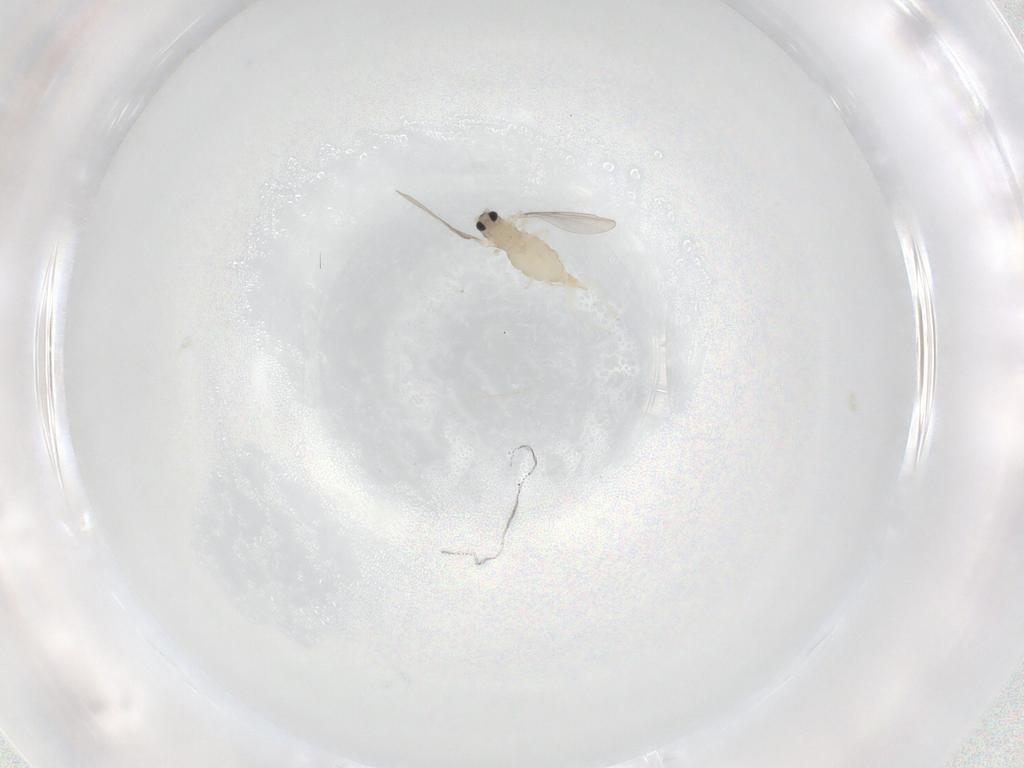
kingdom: Animalia
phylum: Arthropoda
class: Insecta
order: Diptera
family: Cecidomyiidae
